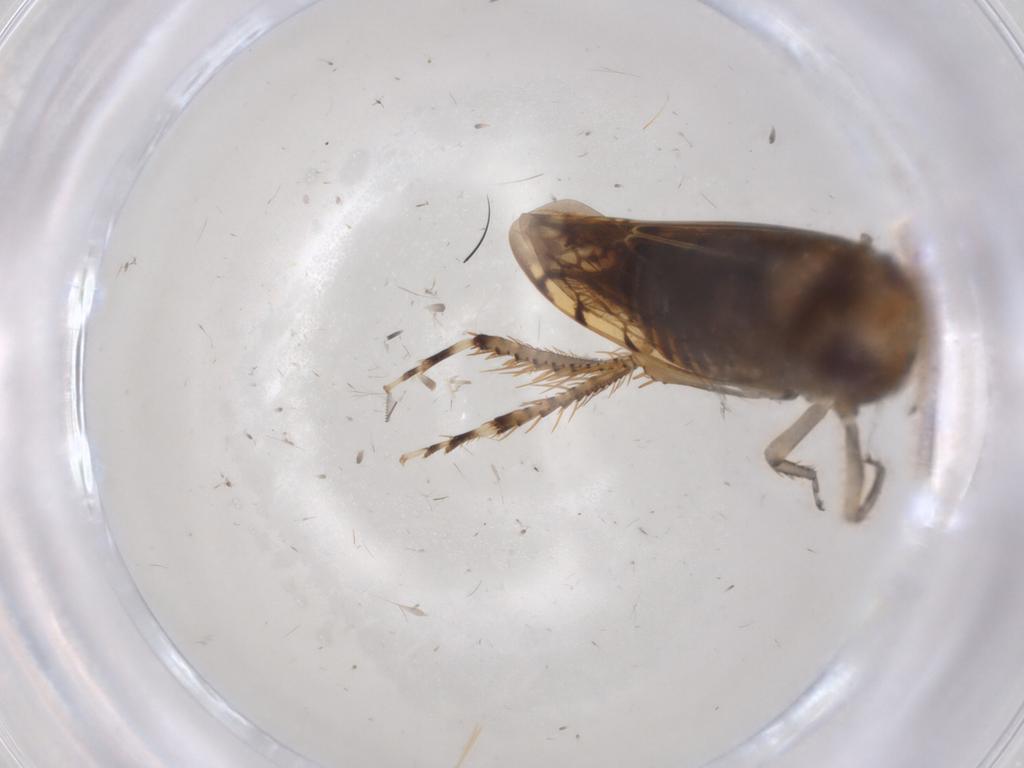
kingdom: Animalia
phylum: Arthropoda
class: Insecta
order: Hemiptera
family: Cicadellidae
